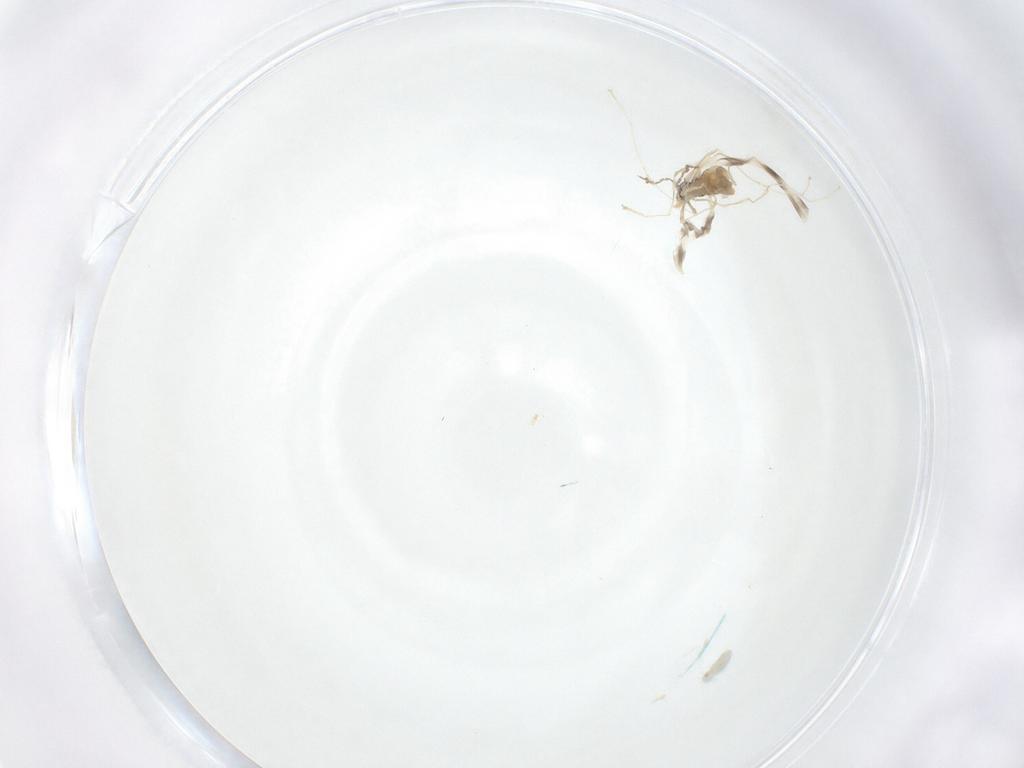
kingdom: Animalia
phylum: Arthropoda
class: Insecta
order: Diptera
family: Cecidomyiidae
